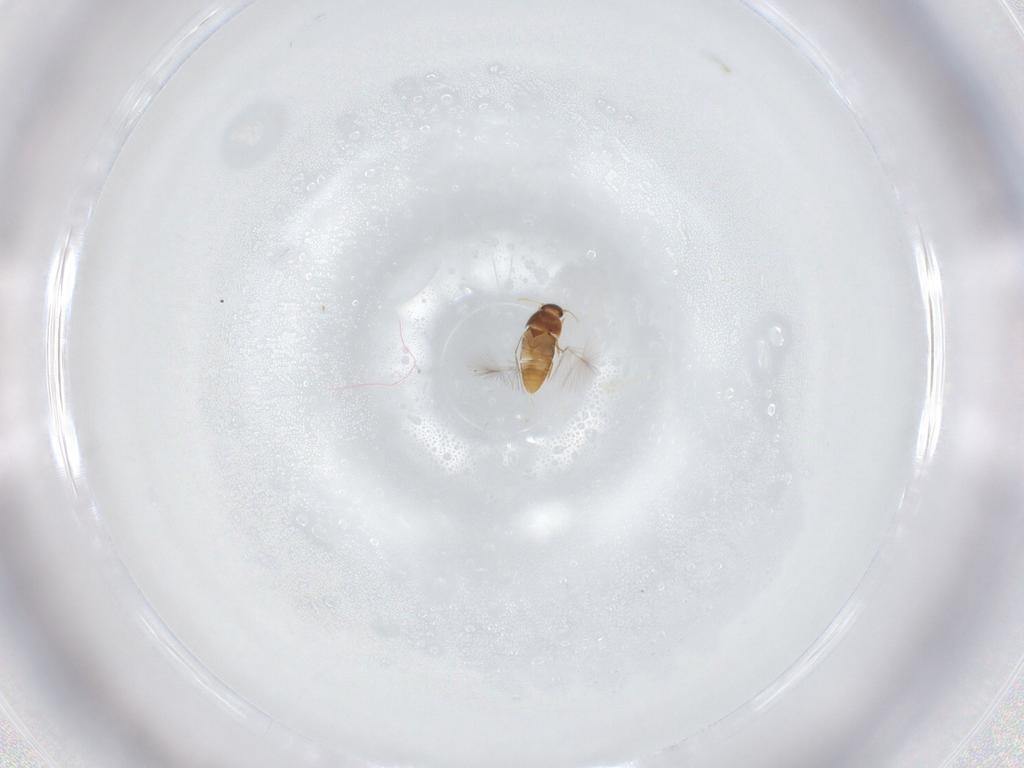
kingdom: Animalia
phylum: Arthropoda
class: Insecta
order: Coleoptera
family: Ptiliidae
